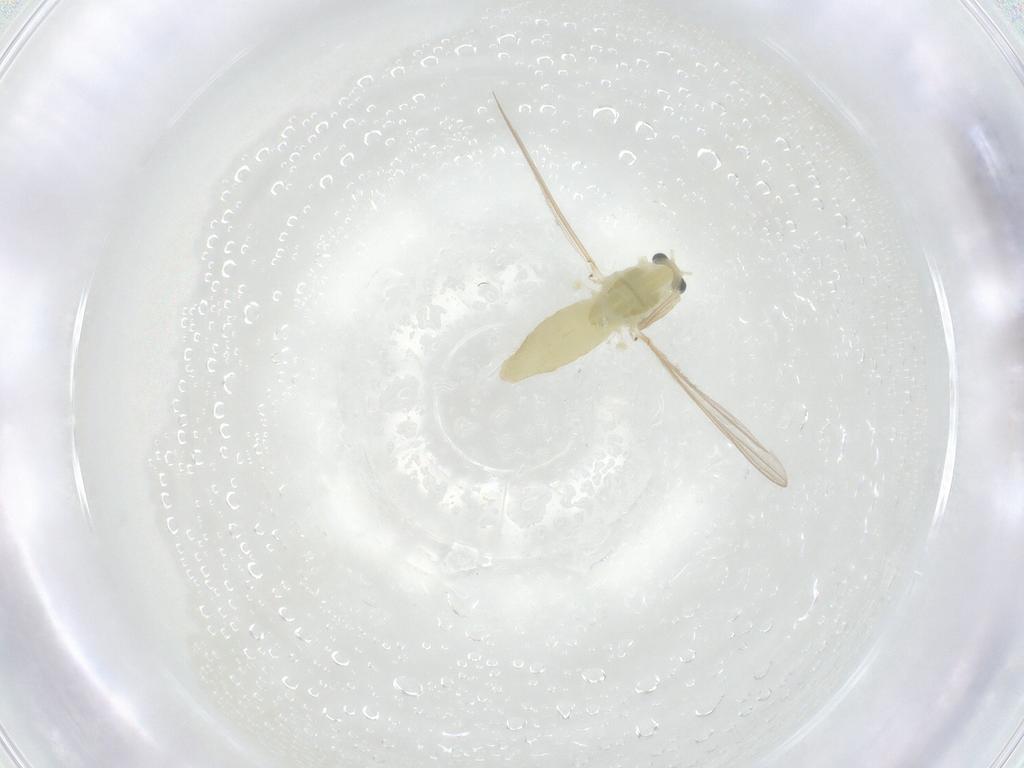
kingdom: Animalia
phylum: Arthropoda
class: Insecta
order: Diptera
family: Chironomidae
